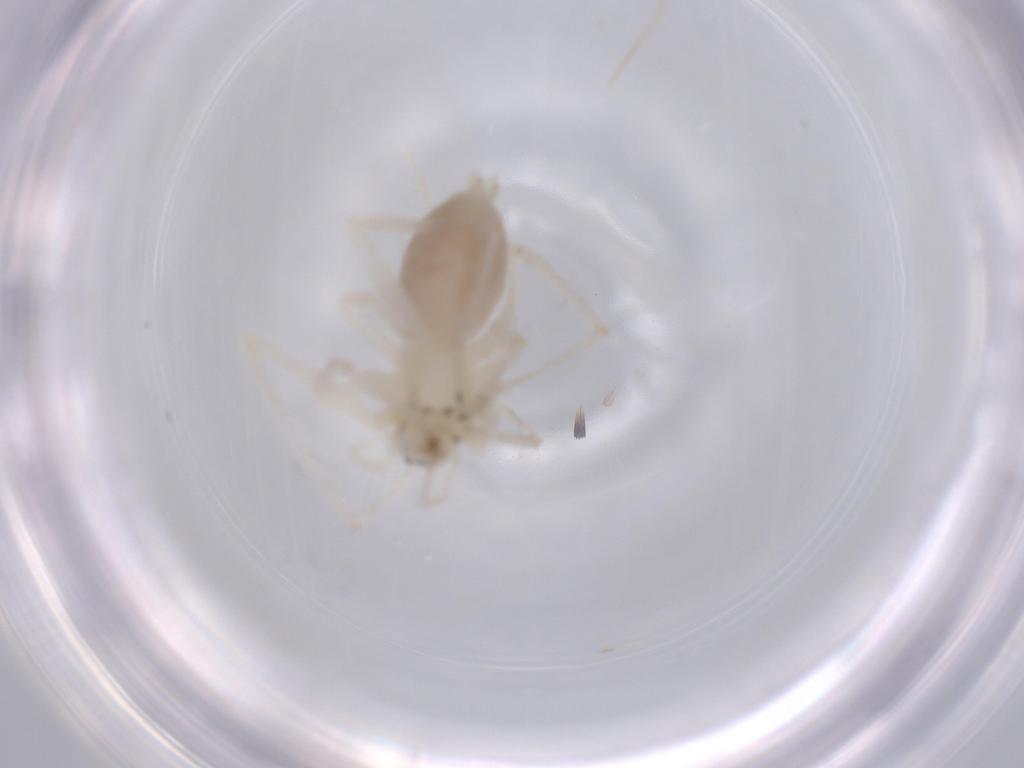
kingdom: Animalia
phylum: Arthropoda
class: Arachnida
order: Araneae
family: Anyphaenidae
